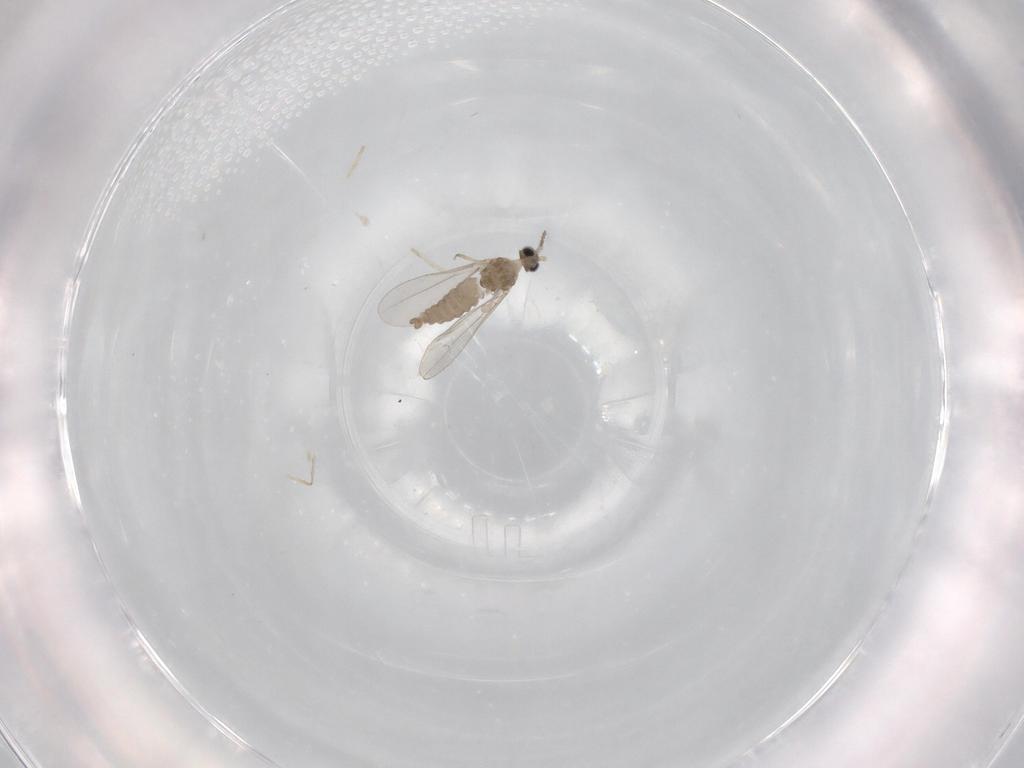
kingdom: Animalia
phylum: Arthropoda
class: Insecta
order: Diptera
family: Cecidomyiidae
